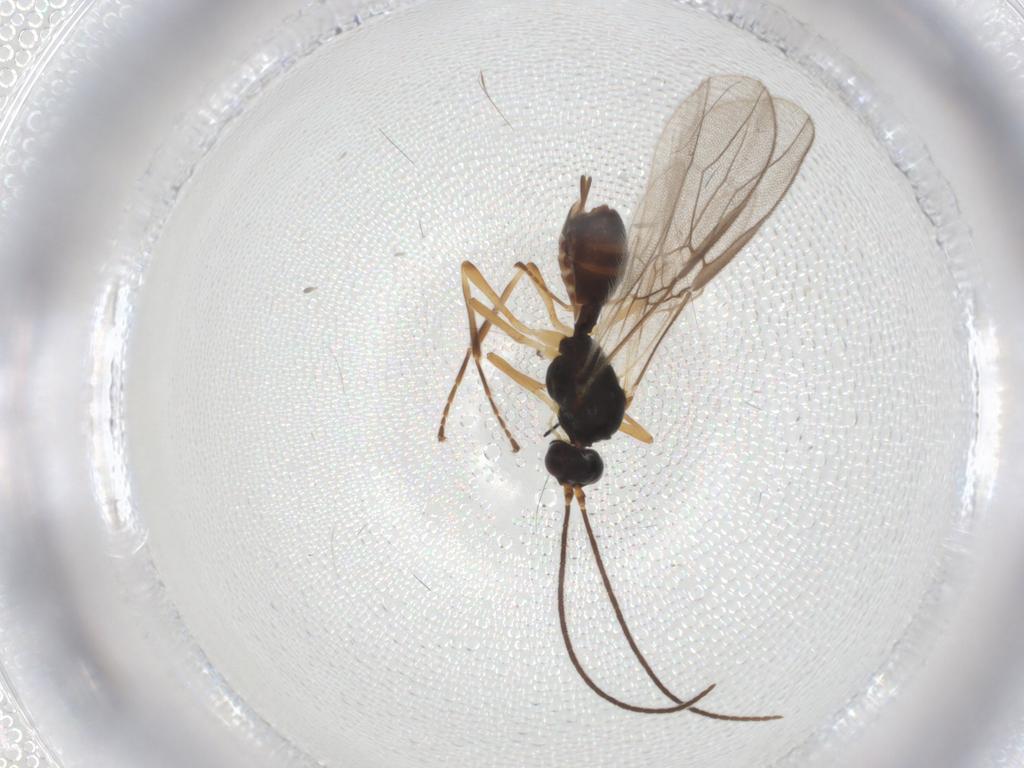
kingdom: Animalia
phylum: Arthropoda
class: Insecta
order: Hymenoptera
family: Braconidae
